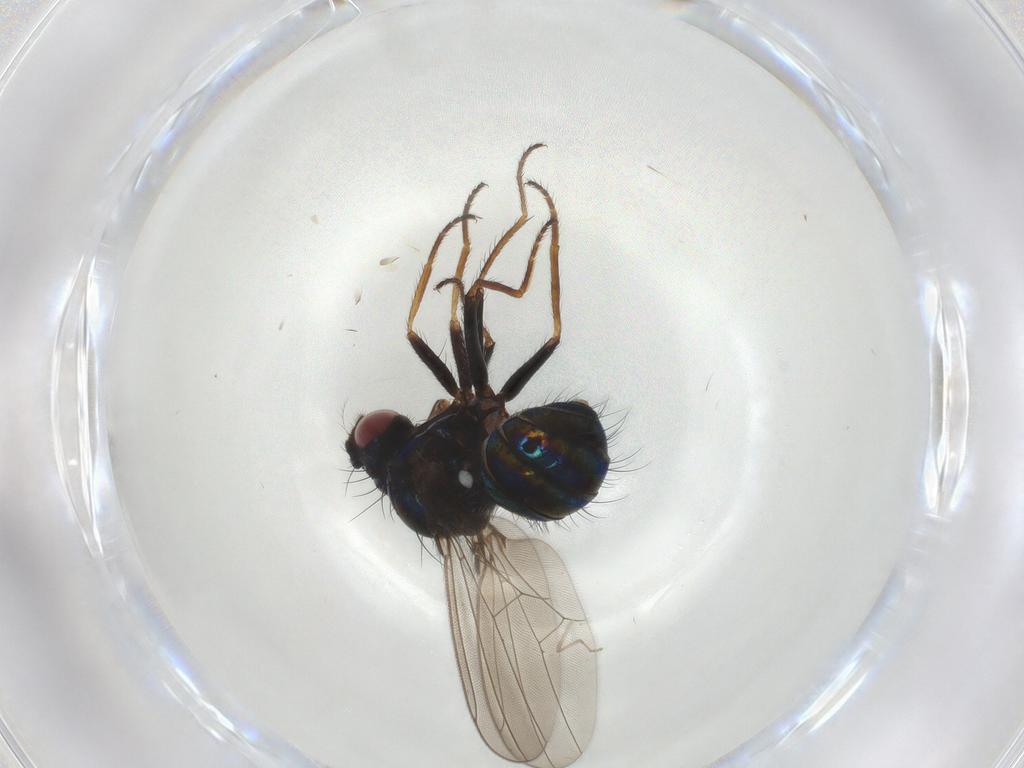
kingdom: Animalia
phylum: Arthropoda
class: Insecta
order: Diptera
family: Ephydridae
